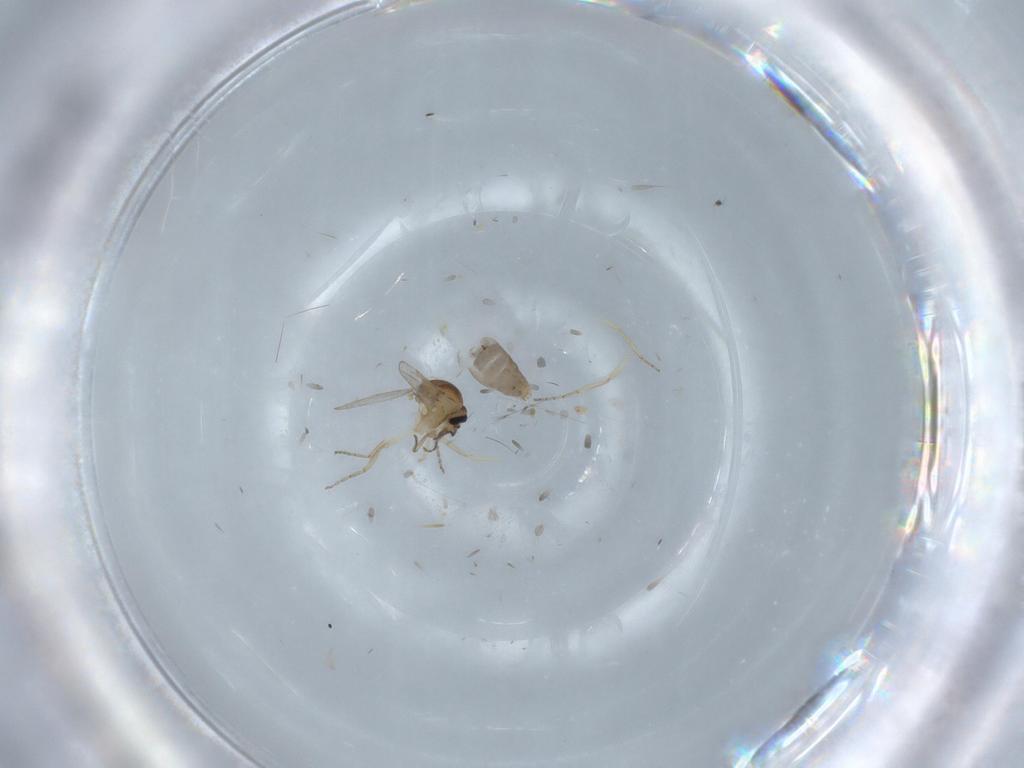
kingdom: Animalia
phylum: Arthropoda
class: Insecta
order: Diptera
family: Ceratopogonidae
